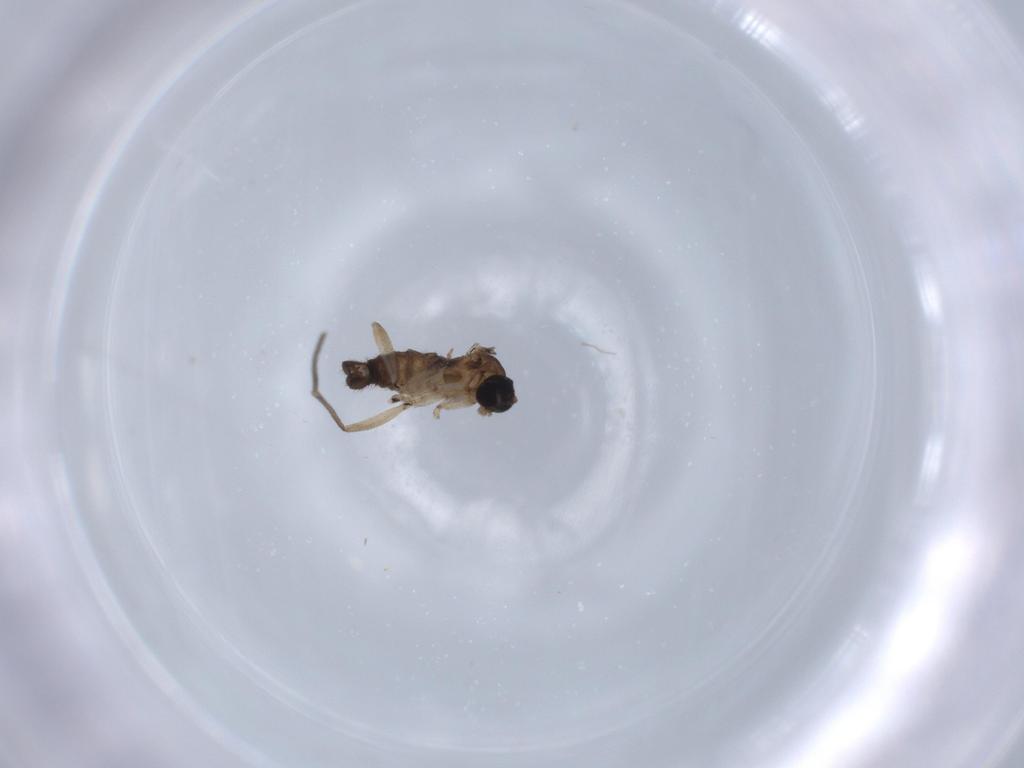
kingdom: Animalia
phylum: Arthropoda
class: Insecta
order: Diptera
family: Sciaridae
